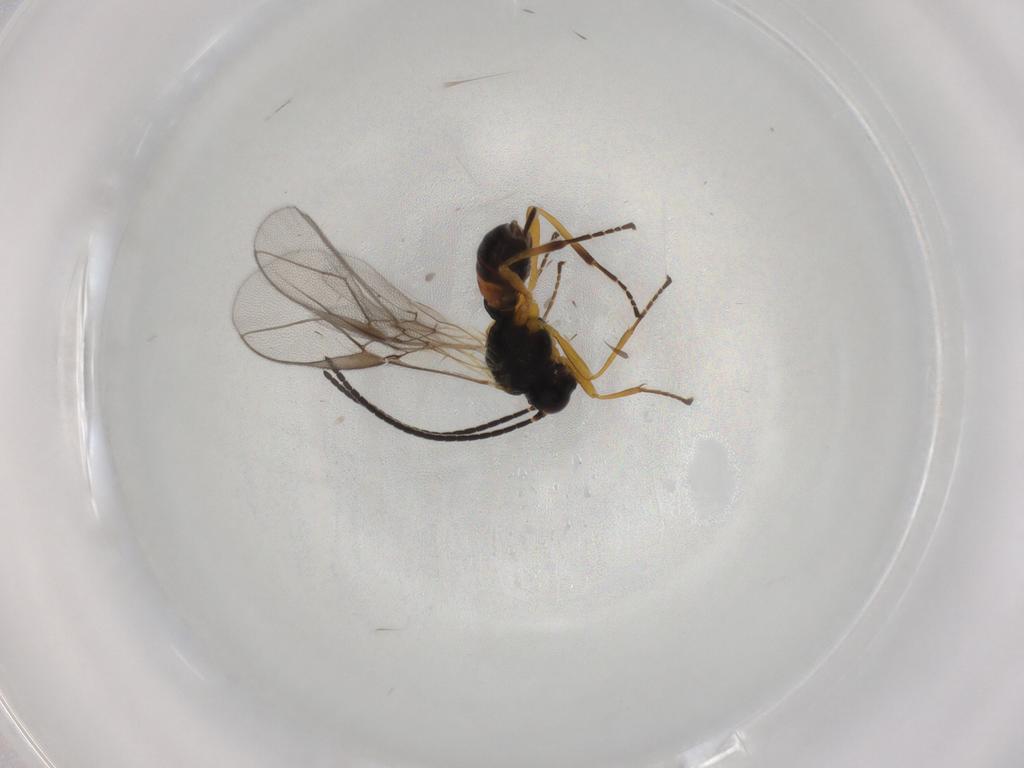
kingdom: Animalia
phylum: Arthropoda
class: Insecta
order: Hymenoptera
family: Braconidae
